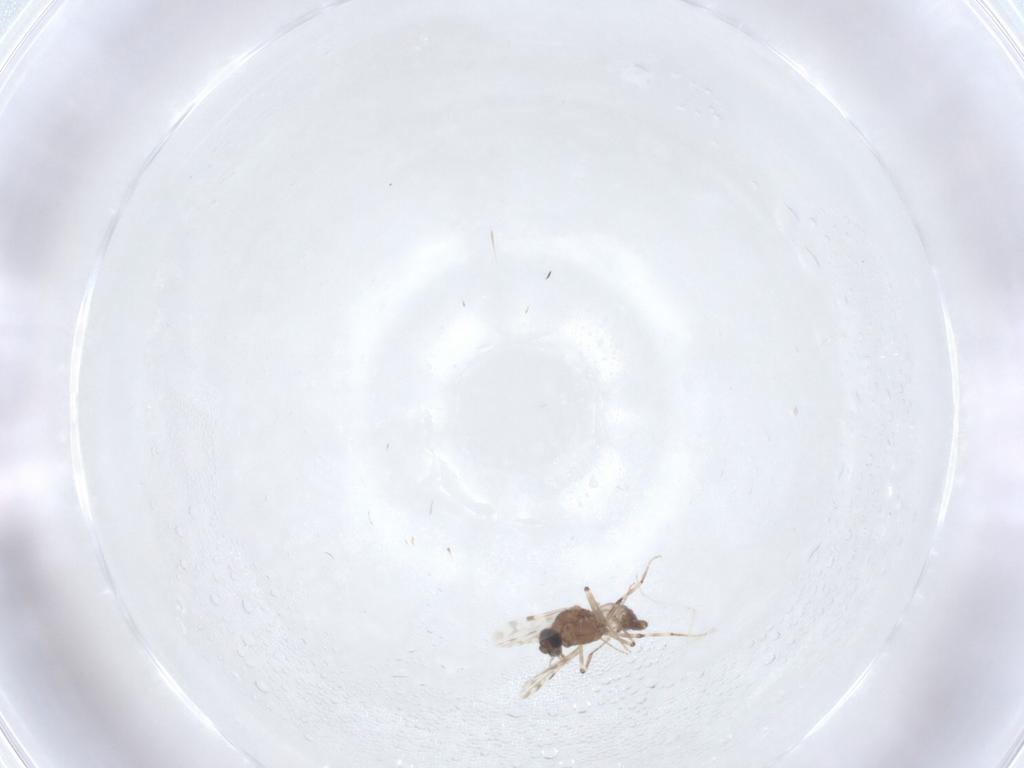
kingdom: Animalia
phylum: Arthropoda
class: Insecta
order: Diptera
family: Ceratopogonidae
